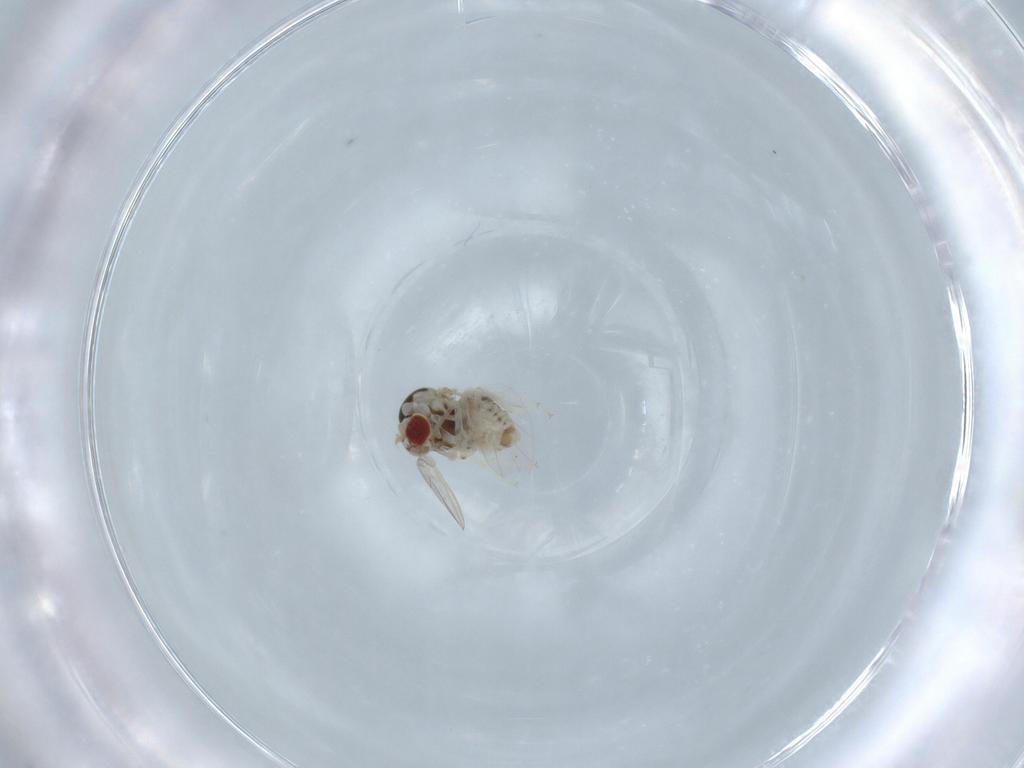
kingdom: Animalia
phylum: Arthropoda
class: Insecta
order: Diptera
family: Bombyliidae
